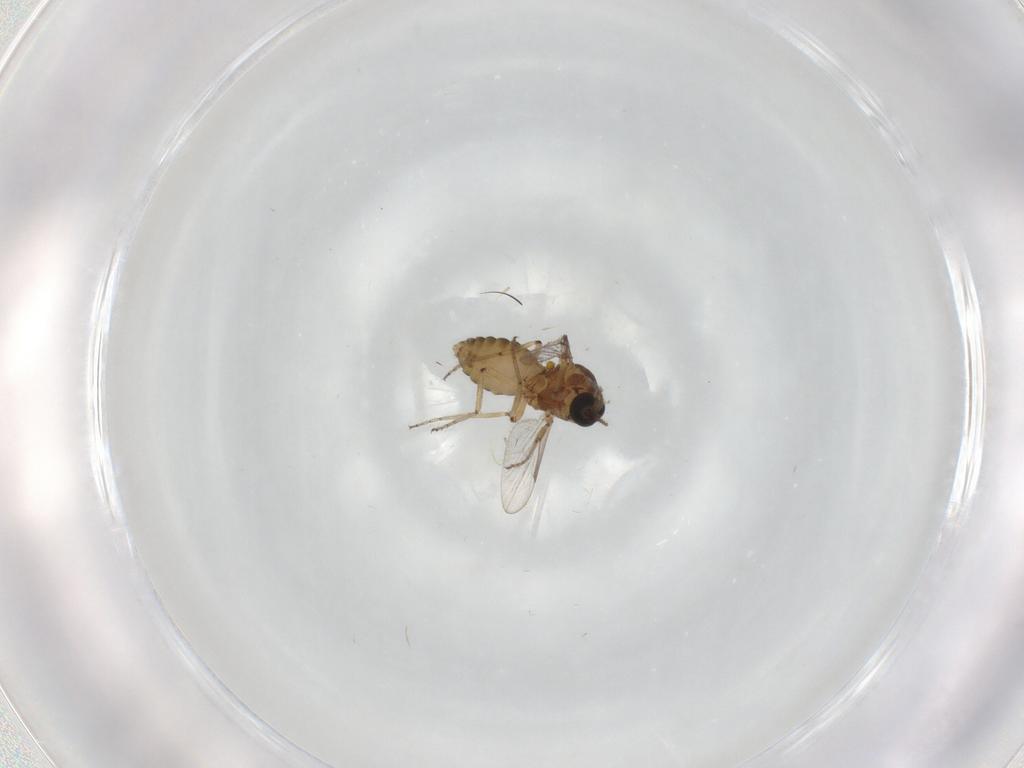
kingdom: Animalia
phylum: Arthropoda
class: Insecta
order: Diptera
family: Ceratopogonidae
